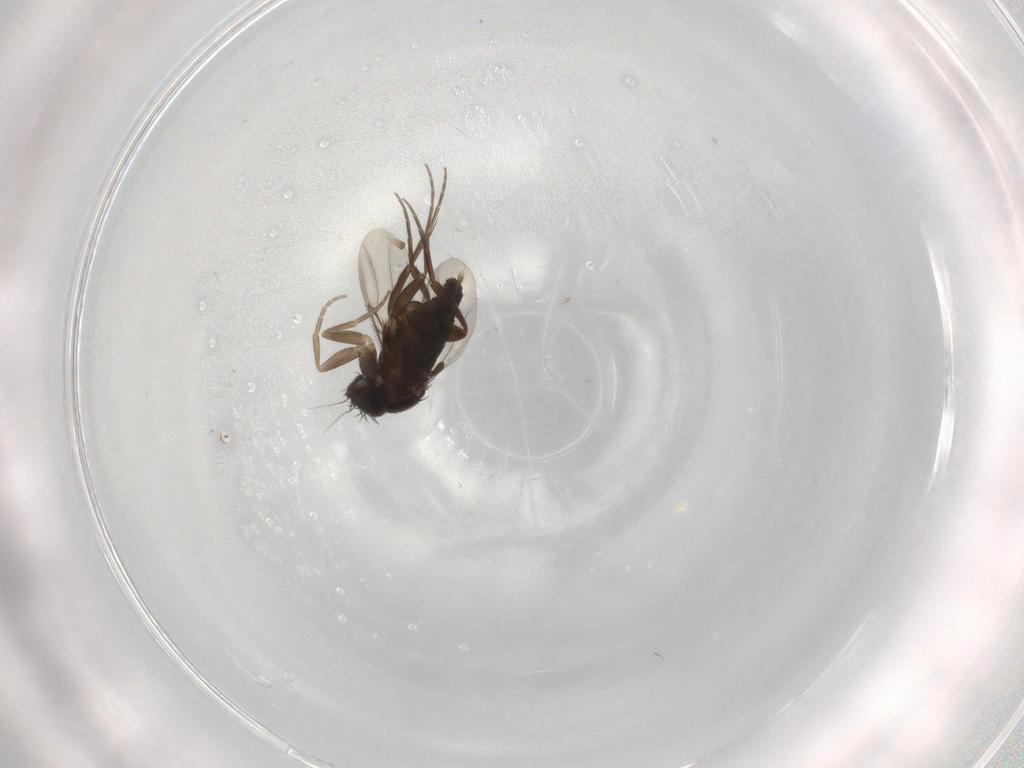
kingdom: Animalia
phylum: Arthropoda
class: Insecta
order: Diptera
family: Phoridae
